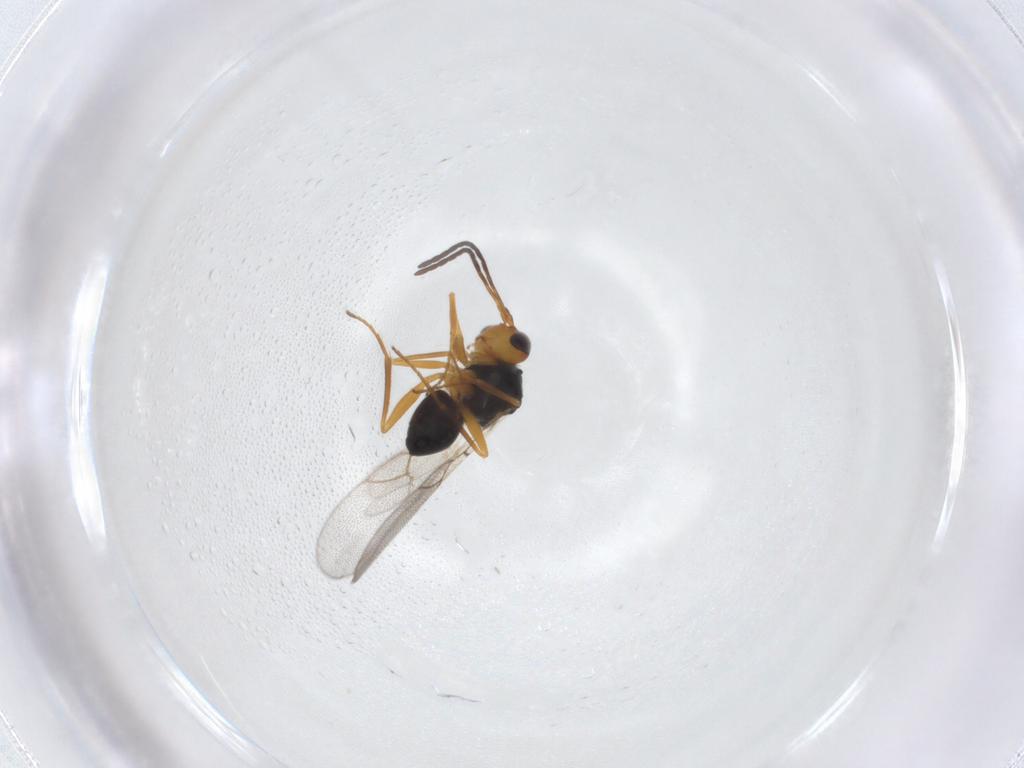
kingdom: Animalia
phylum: Arthropoda
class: Insecta
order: Hymenoptera
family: Figitidae
